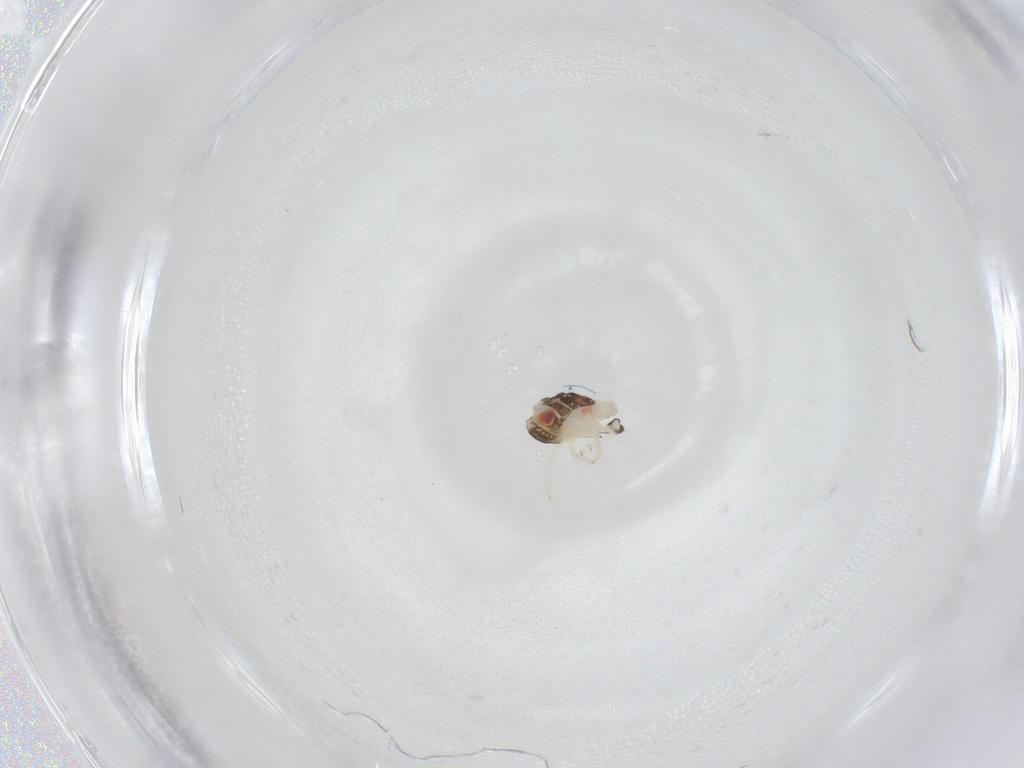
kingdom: Animalia
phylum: Arthropoda
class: Insecta
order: Hemiptera
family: Nogodinidae
